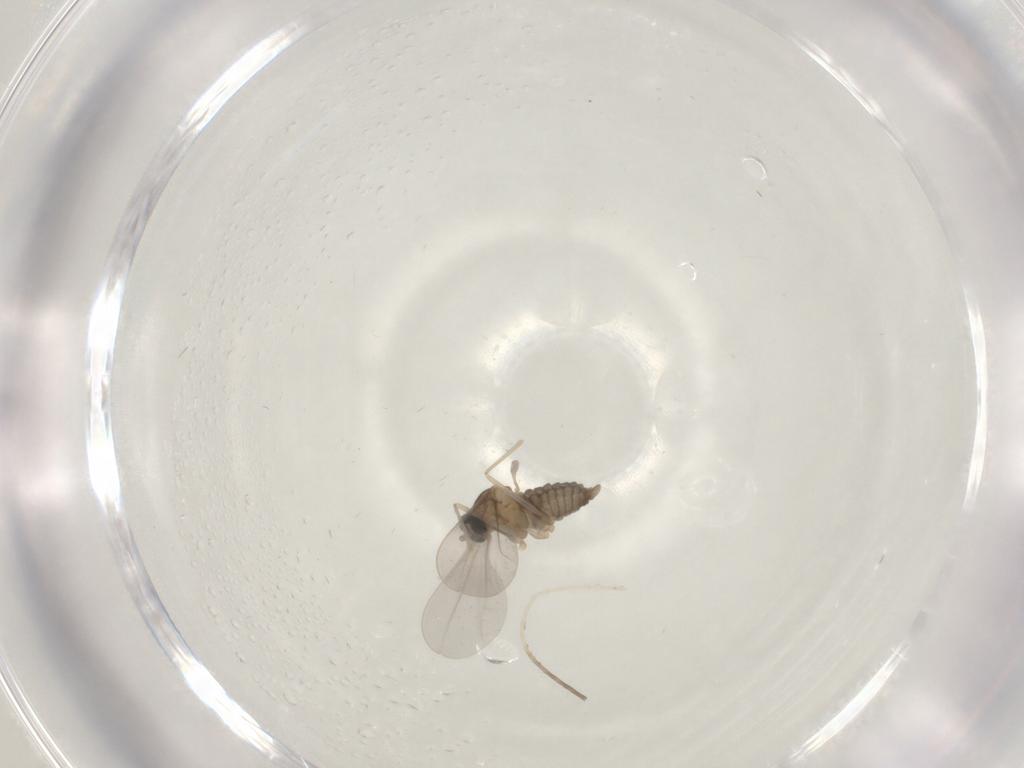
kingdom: Animalia
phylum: Arthropoda
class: Insecta
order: Diptera
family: Cecidomyiidae
